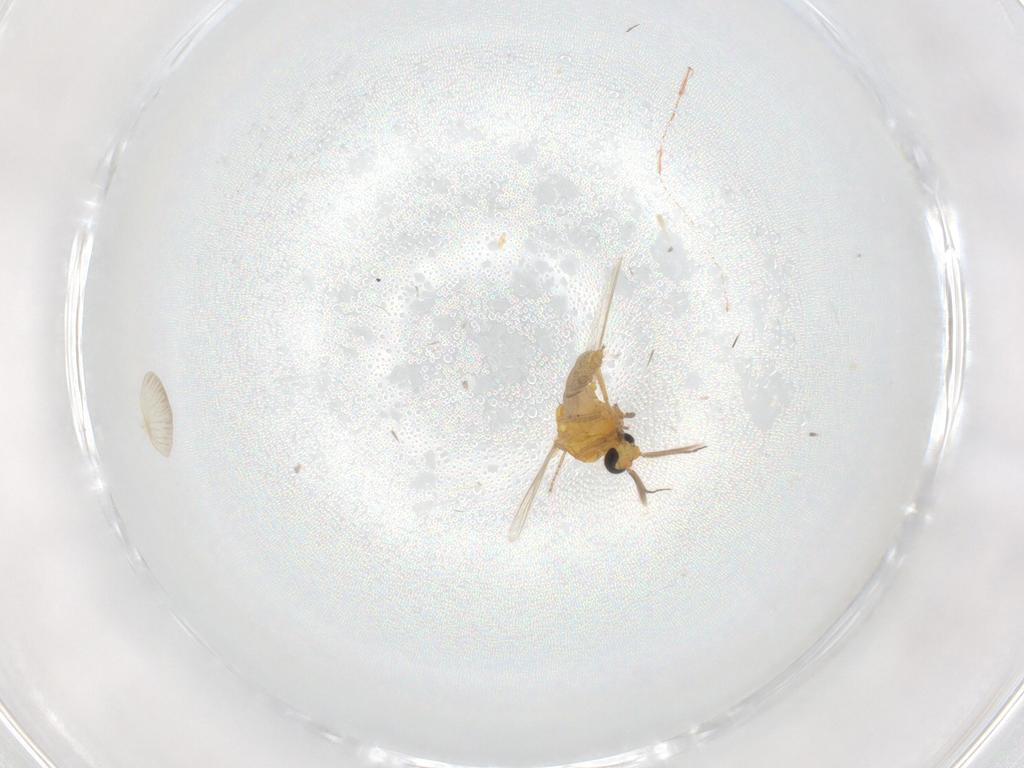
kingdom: Animalia
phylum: Arthropoda
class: Insecta
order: Diptera
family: Ceratopogonidae
